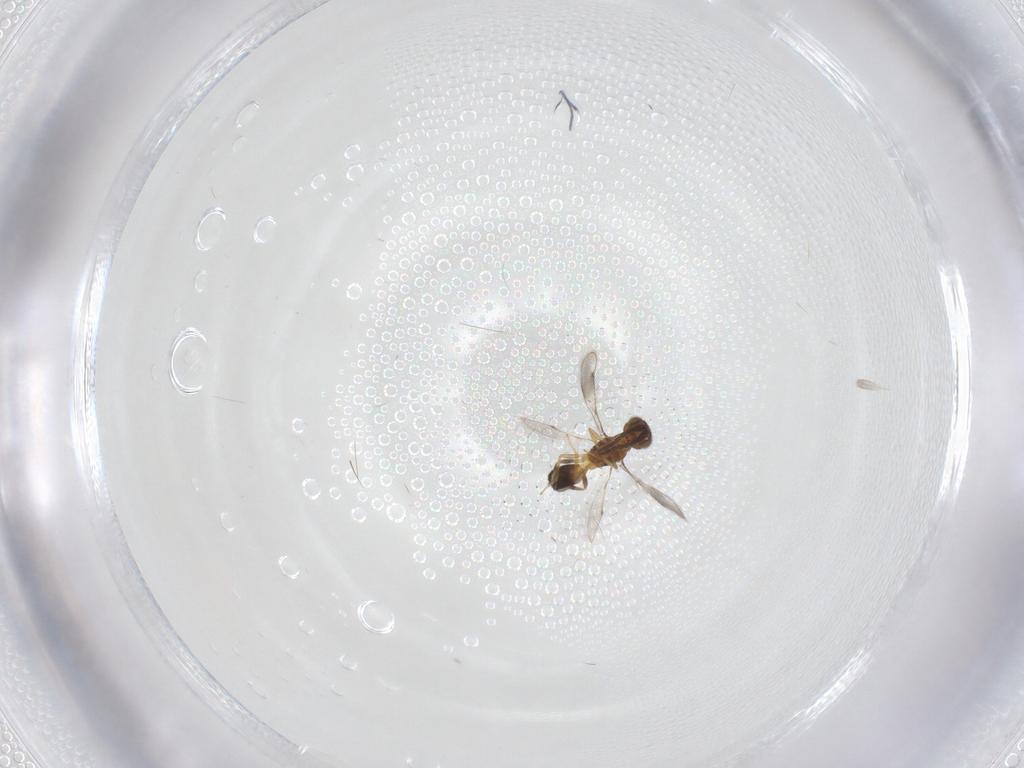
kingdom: Animalia
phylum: Arthropoda
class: Insecta
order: Hymenoptera
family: Pteromalidae
